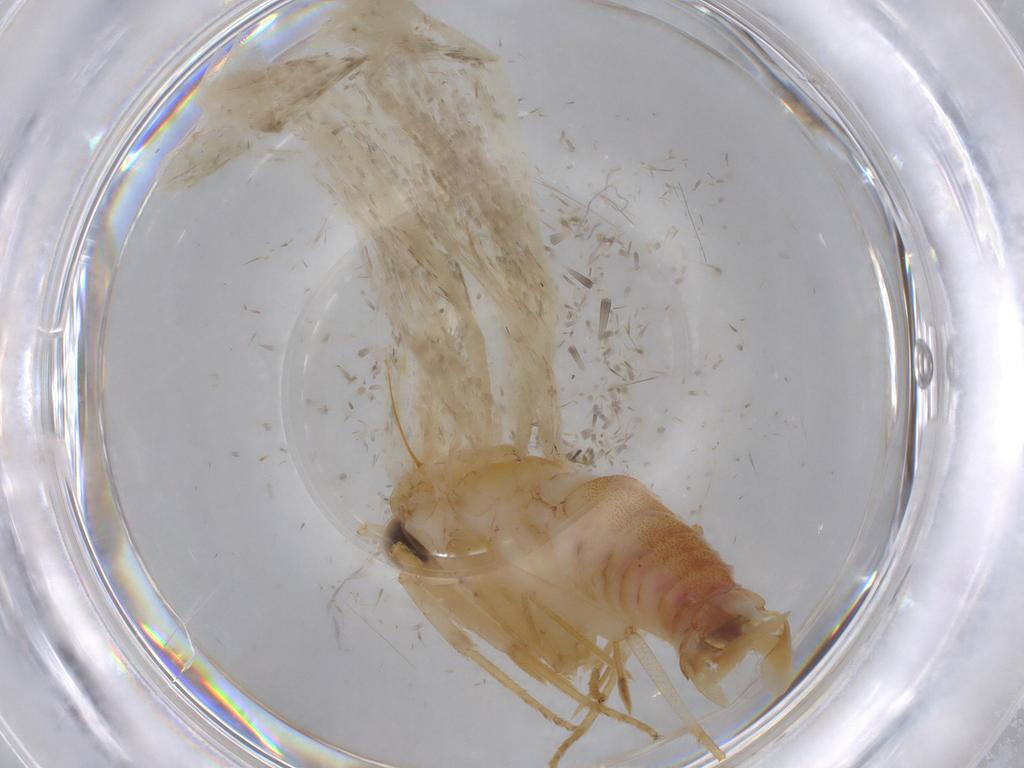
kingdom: Animalia
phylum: Arthropoda
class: Insecta
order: Lepidoptera
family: Oecophoridae
